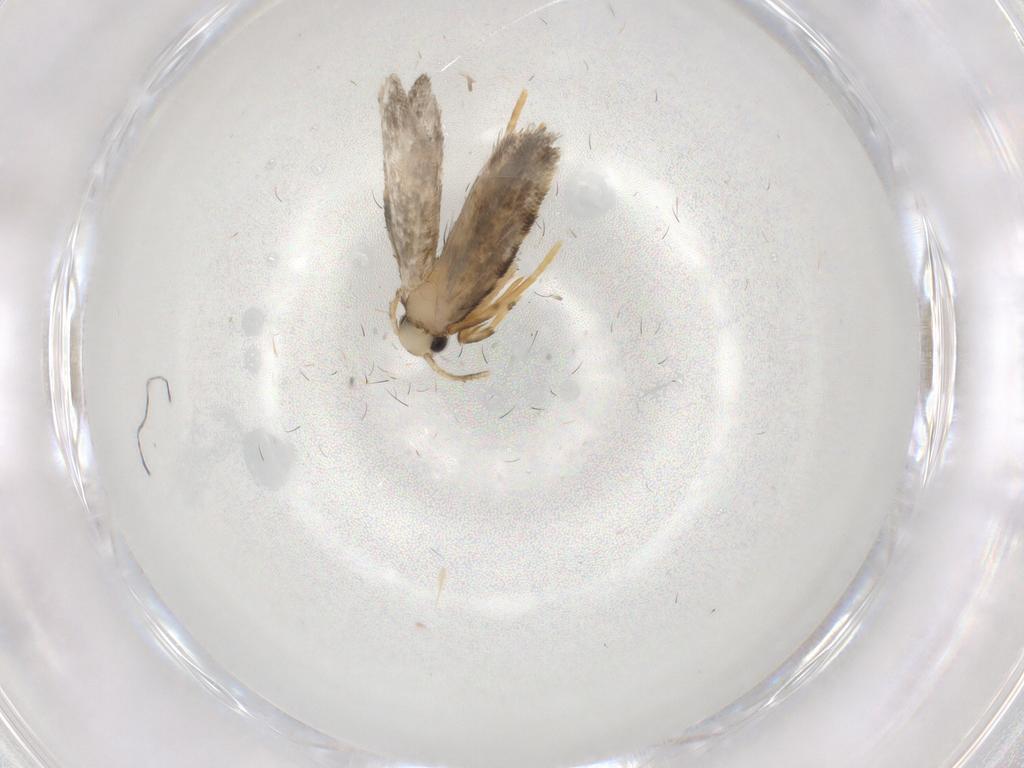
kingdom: Animalia
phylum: Arthropoda
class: Insecta
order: Lepidoptera
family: Psychidae
